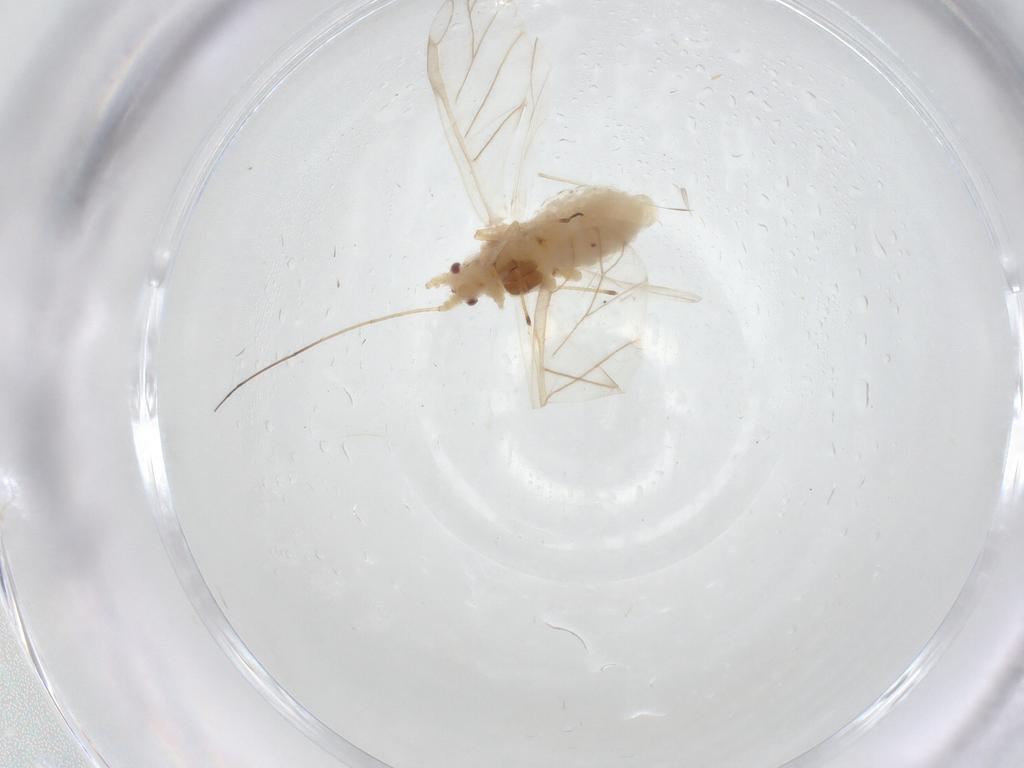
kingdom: Animalia
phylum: Arthropoda
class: Insecta
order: Hemiptera
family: Aphididae
